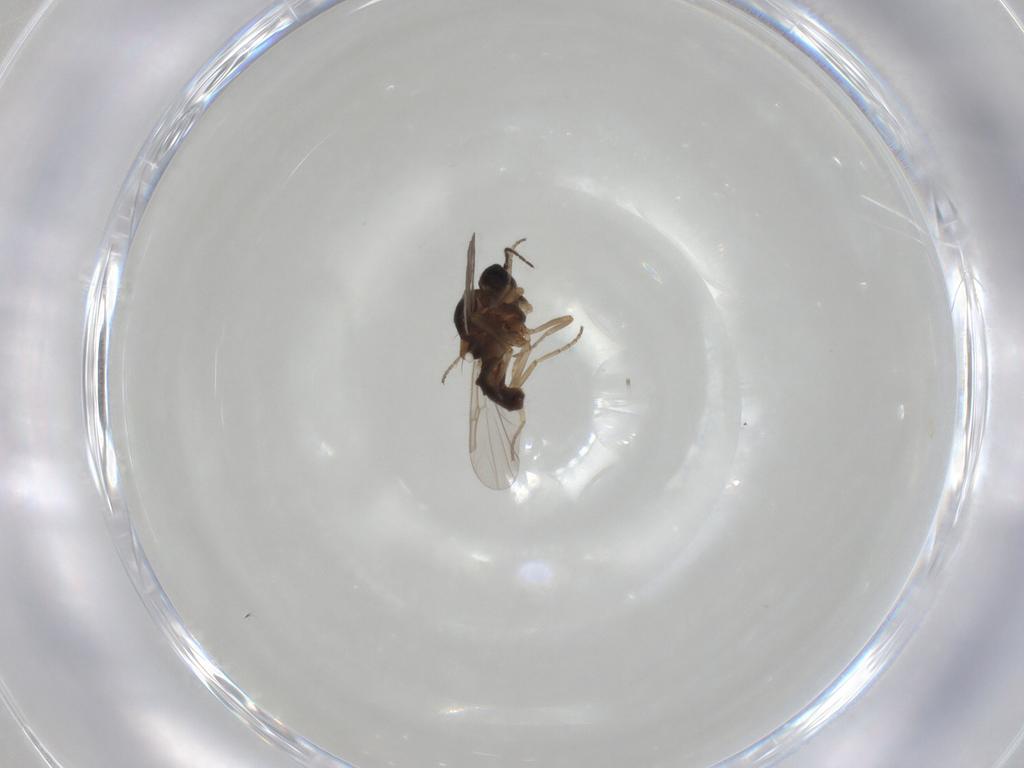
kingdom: Animalia
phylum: Arthropoda
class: Insecta
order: Diptera
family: Ceratopogonidae
